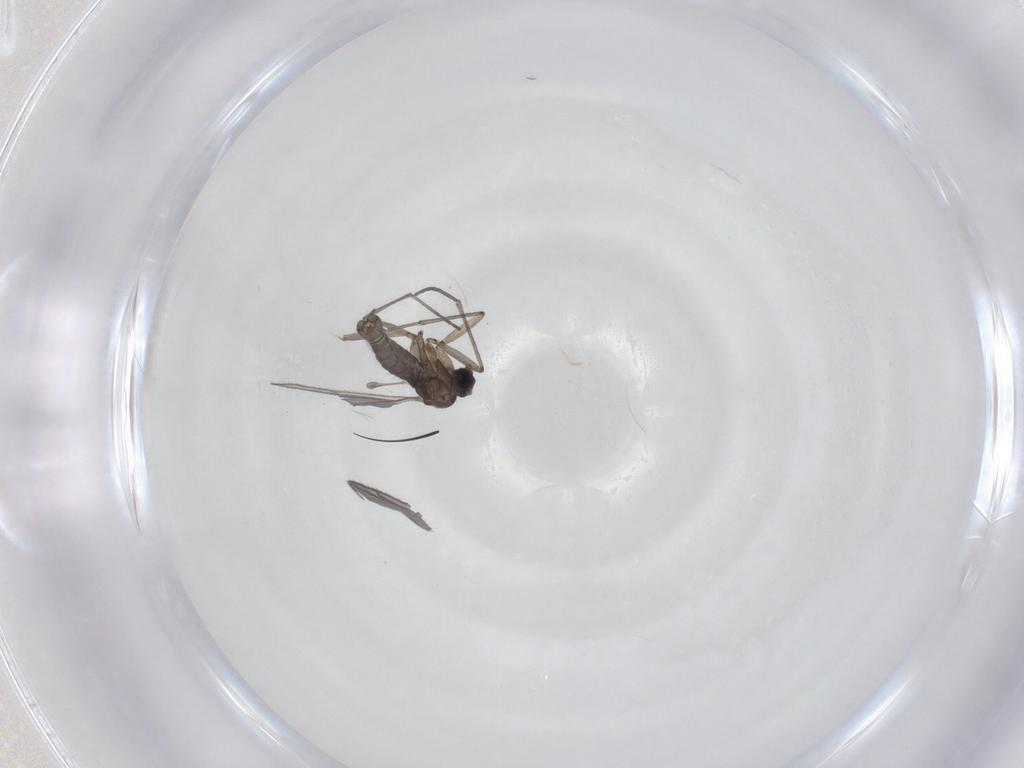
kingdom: Animalia
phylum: Arthropoda
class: Insecta
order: Diptera
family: Sciaridae
